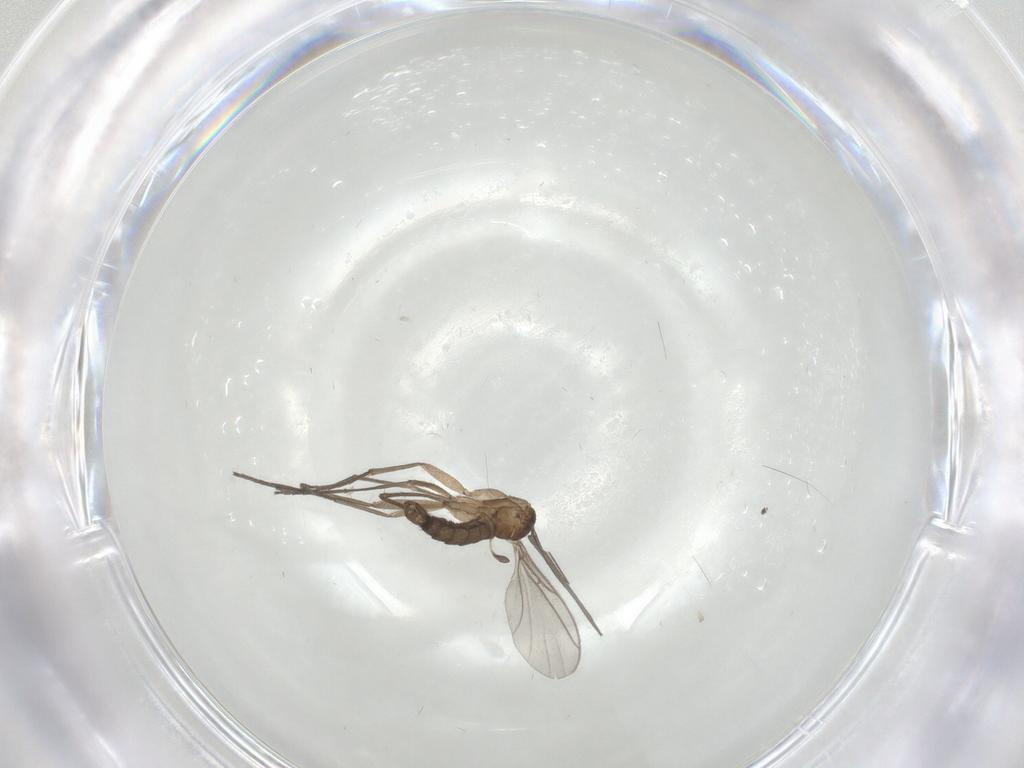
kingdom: Animalia
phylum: Arthropoda
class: Insecta
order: Diptera
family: Sciaridae
